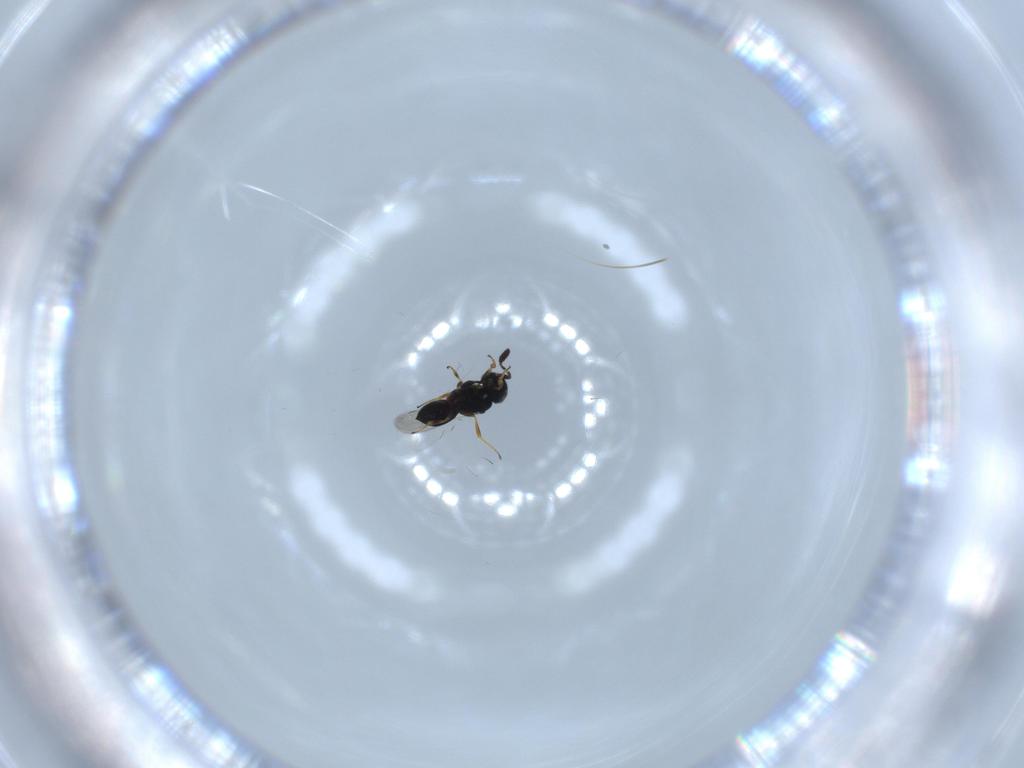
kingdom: Animalia
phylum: Arthropoda
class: Insecta
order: Hymenoptera
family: Scelionidae
